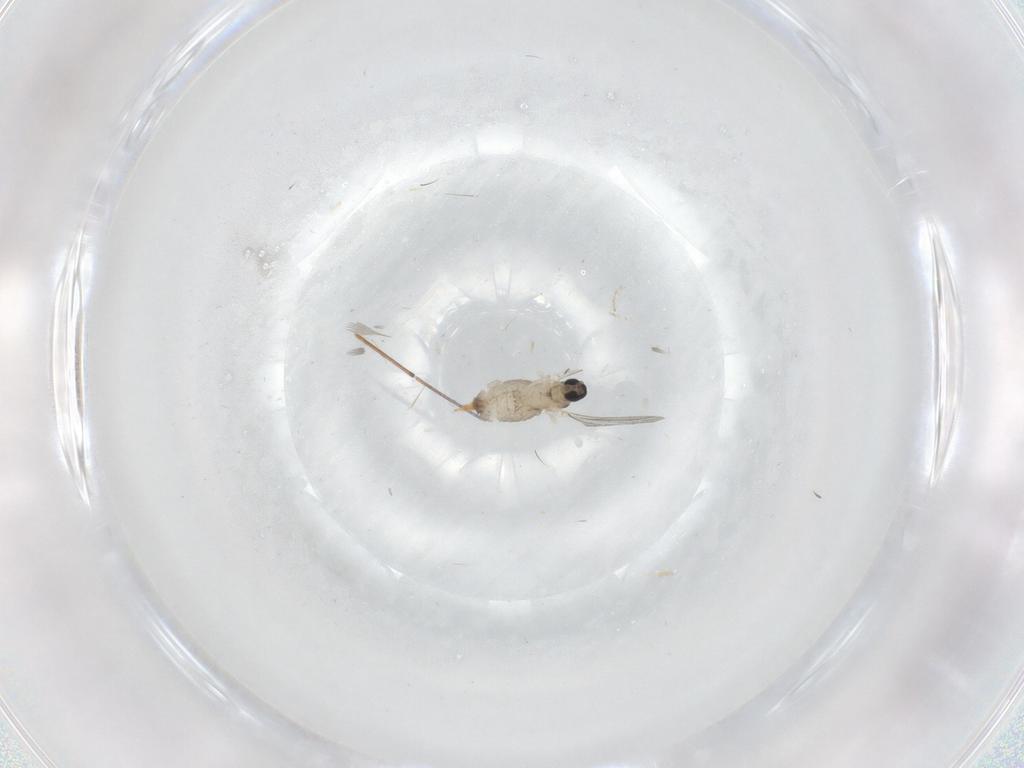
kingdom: Animalia
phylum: Arthropoda
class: Insecta
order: Diptera
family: Cecidomyiidae
